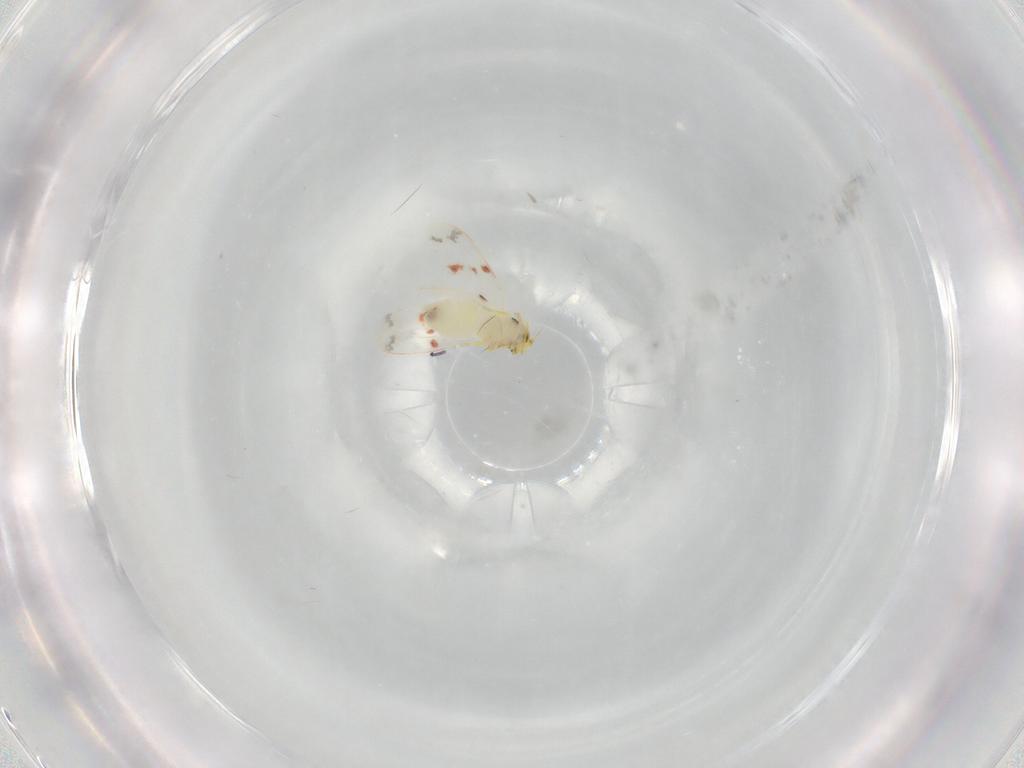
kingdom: Animalia
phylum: Arthropoda
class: Insecta
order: Hemiptera
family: Aleyrodidae
